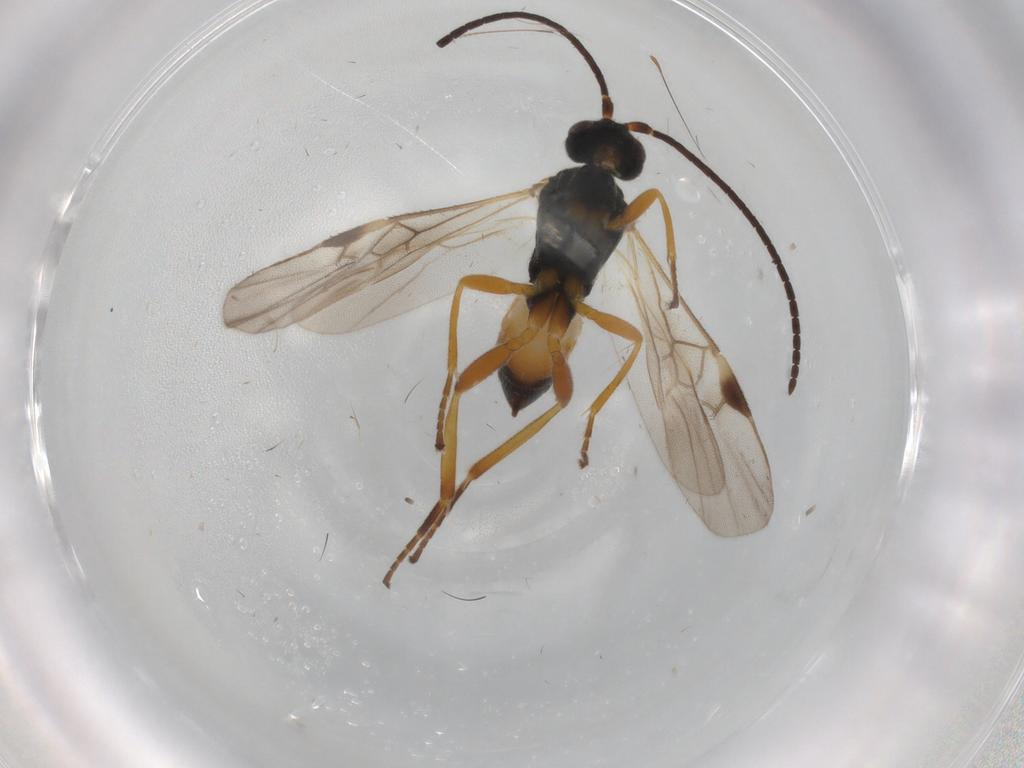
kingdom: Animalia
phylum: Arthropoda
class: Insecta
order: Hymenoptera
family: Braconidae
